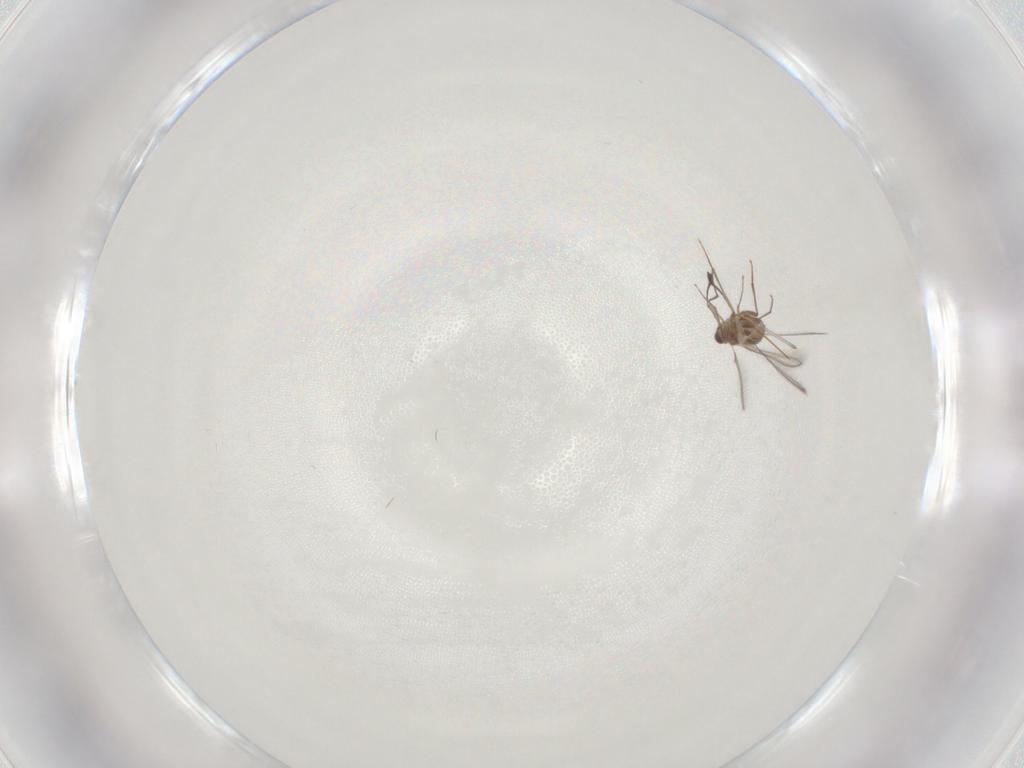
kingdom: Animalia
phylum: Arthropoda
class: Insecta
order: Hymenoptera
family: Mymaridae
